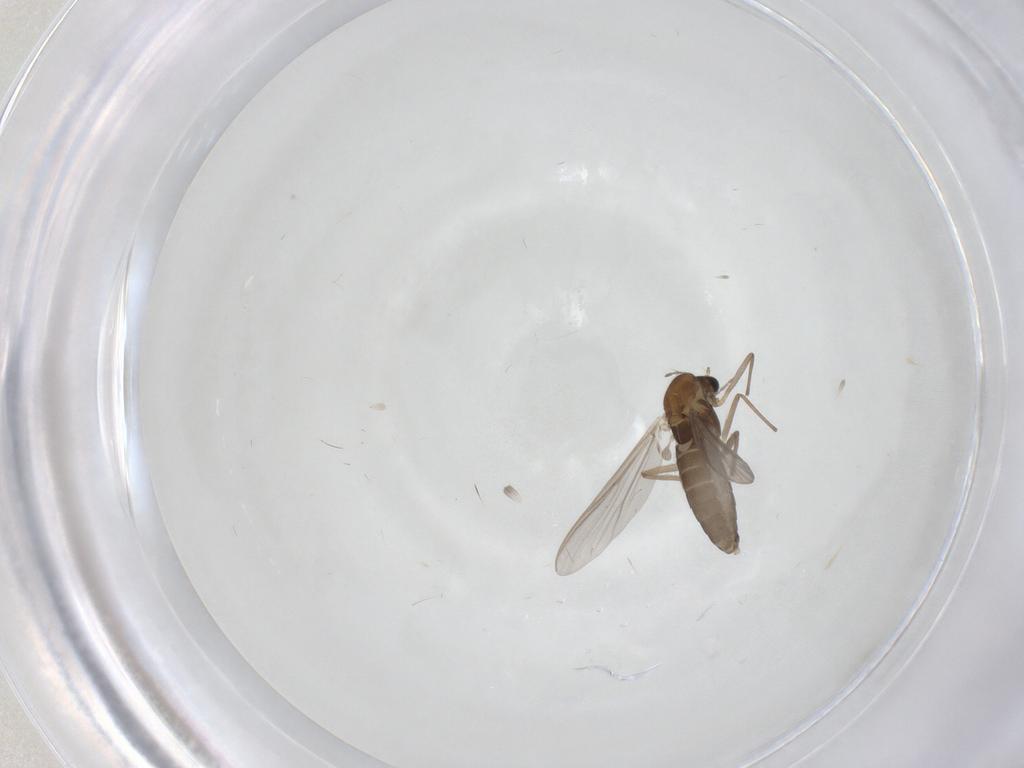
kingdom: Animalia
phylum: Arthropoda
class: Insecta
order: Diptera
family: Chironomidae
